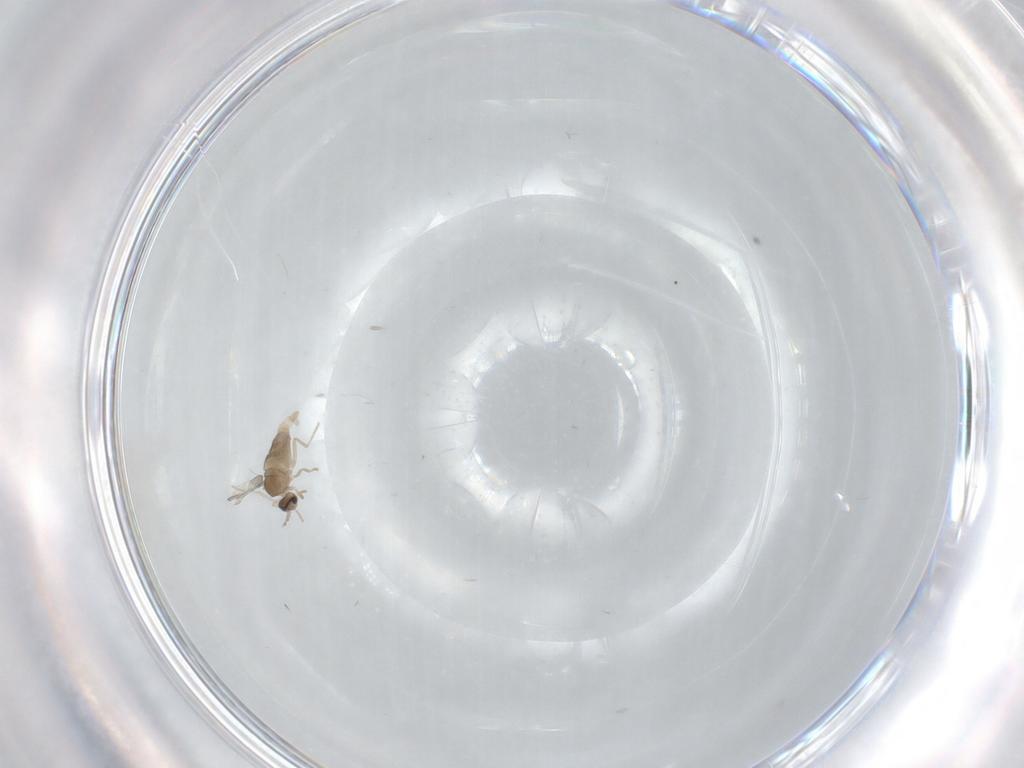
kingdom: Animalia
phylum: Arthropoda
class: Insecta
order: Diptera
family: Cecidomyiidae
